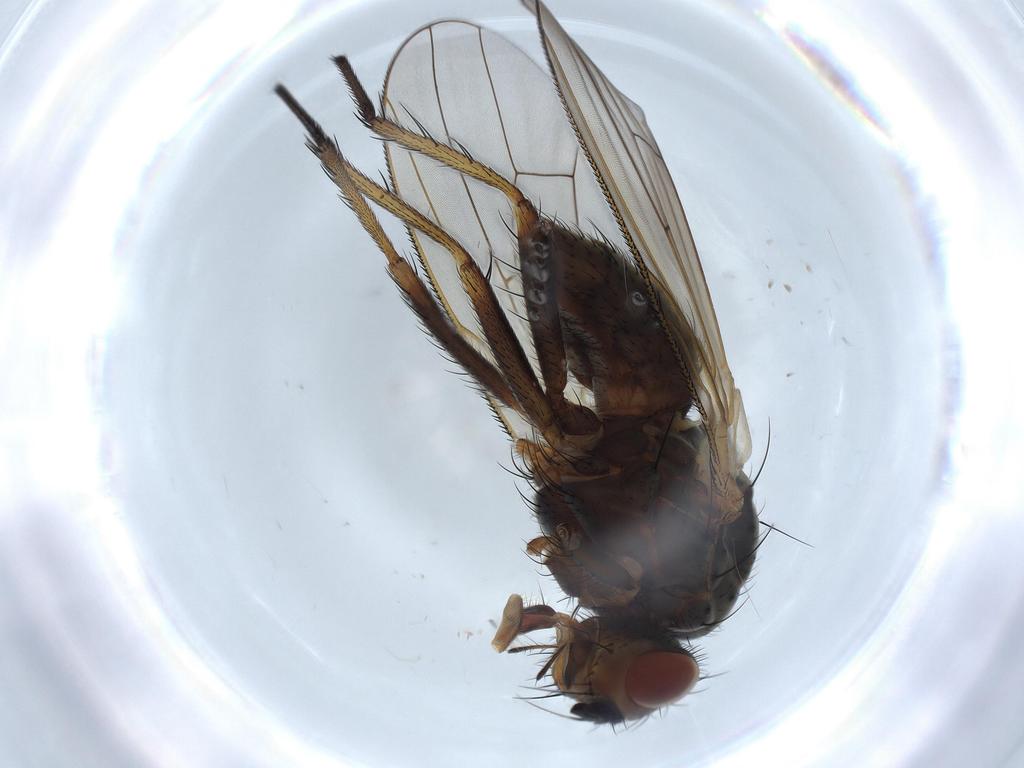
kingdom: Animalia
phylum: Arthropoda
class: Insecta
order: Diptera
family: Anthomyiidae
